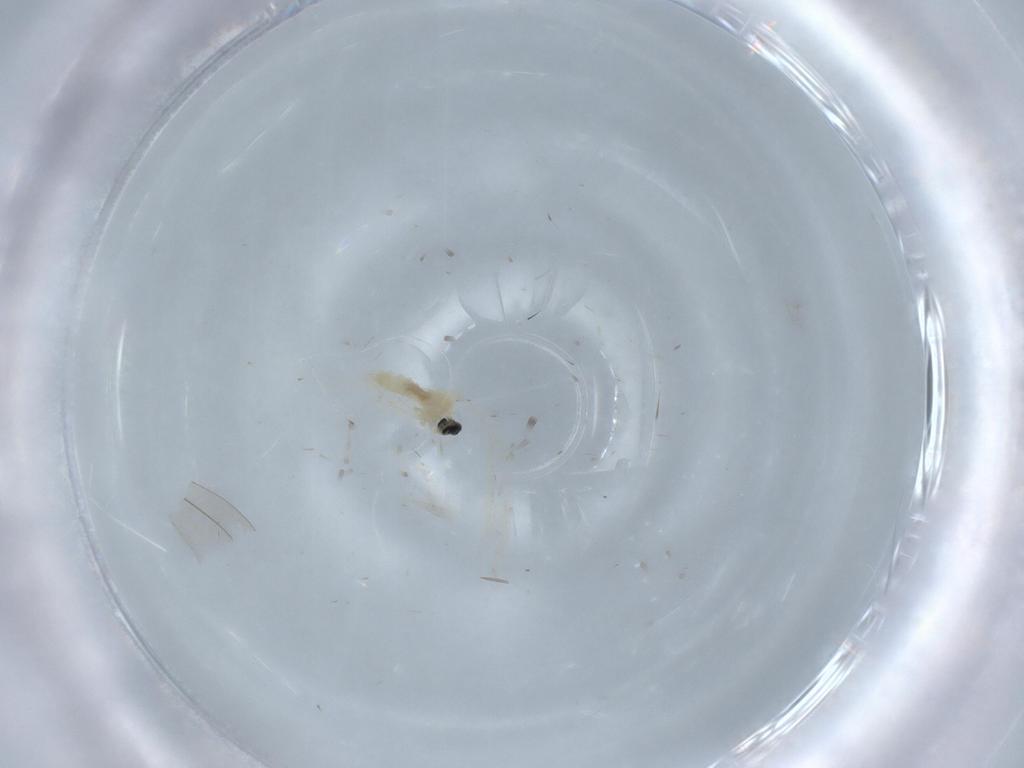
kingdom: Animalia
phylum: Arthropoda
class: Insecta
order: Diptera
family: Cecidomyiidae
